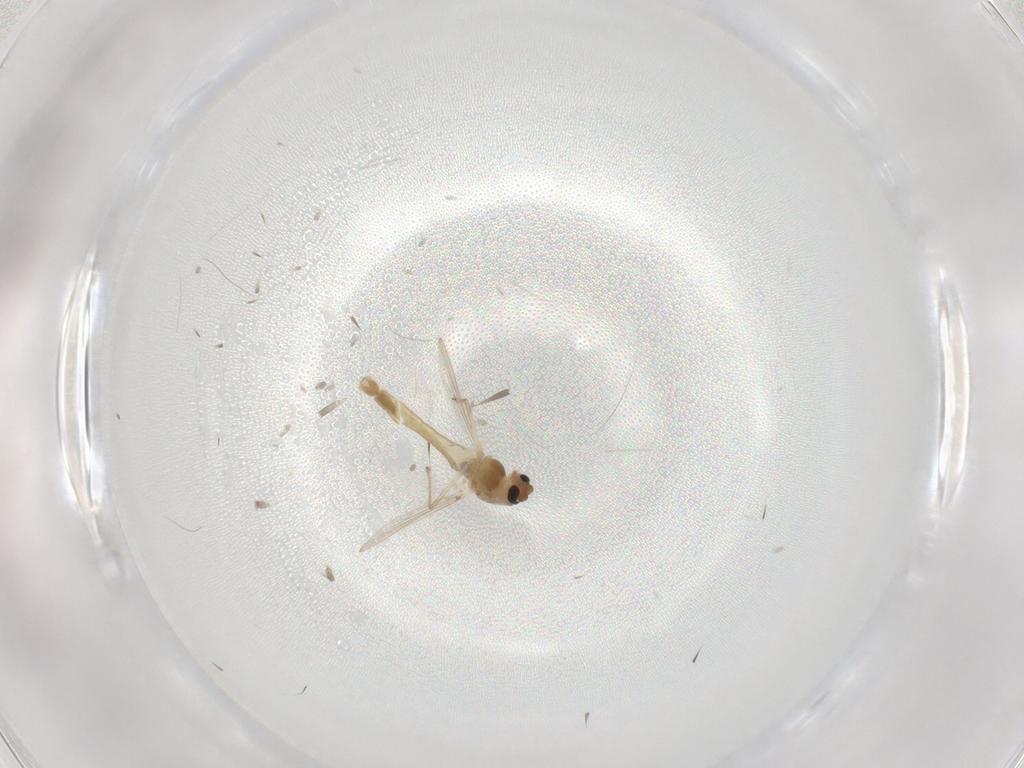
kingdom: Animalia
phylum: Arthropoda
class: Insecta
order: Diptera
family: Chironomidae
